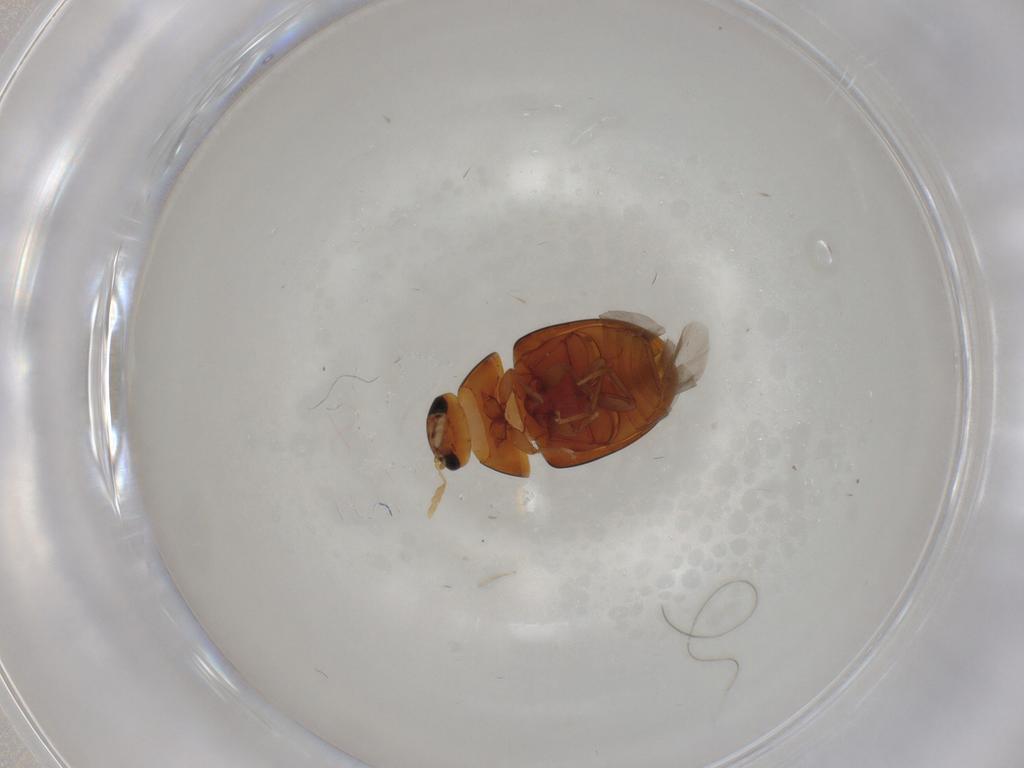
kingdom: Animalia
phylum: Arthropoda
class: Insecta
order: Coleoptera
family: Phalacridae
